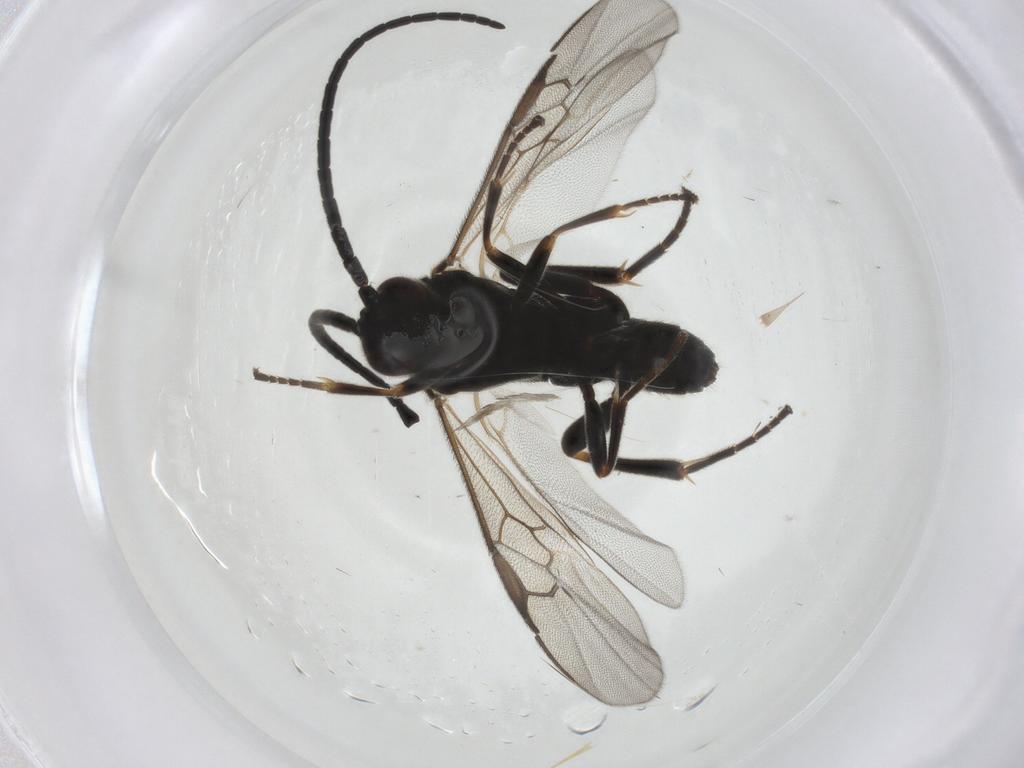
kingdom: Animalia
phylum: Arthropoda
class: Insecta
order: Hymenoptera
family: Braconidae
